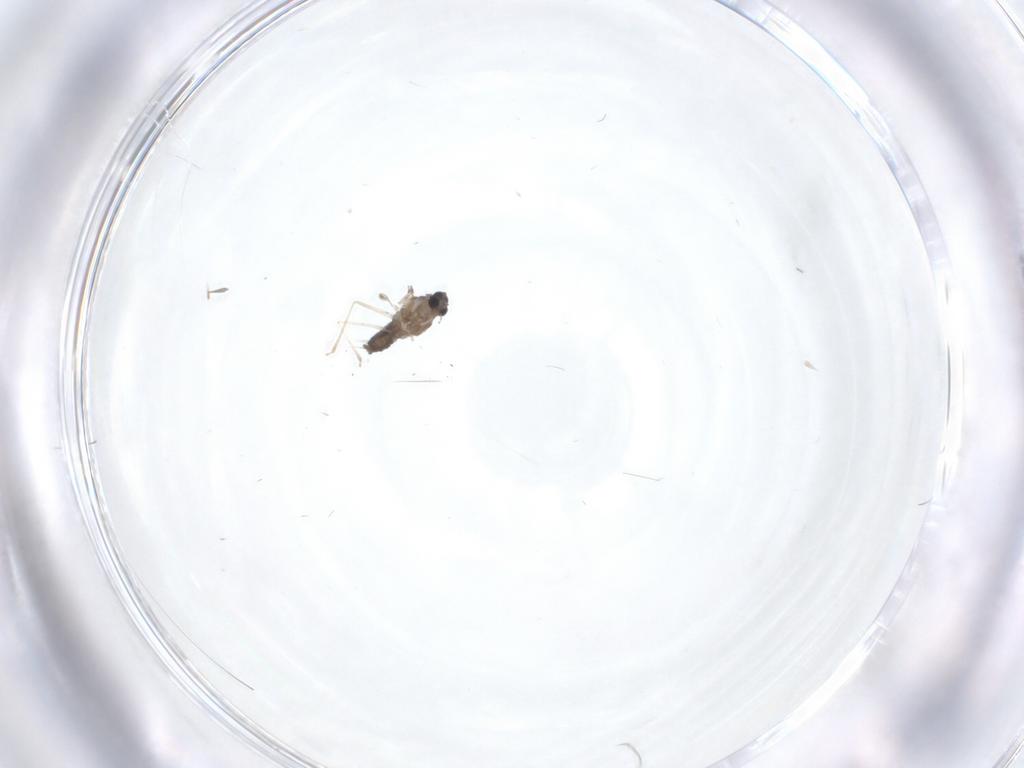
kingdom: Animalia
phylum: Arthropoda
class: Insecta
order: Diptera
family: Cecidomyiidae
